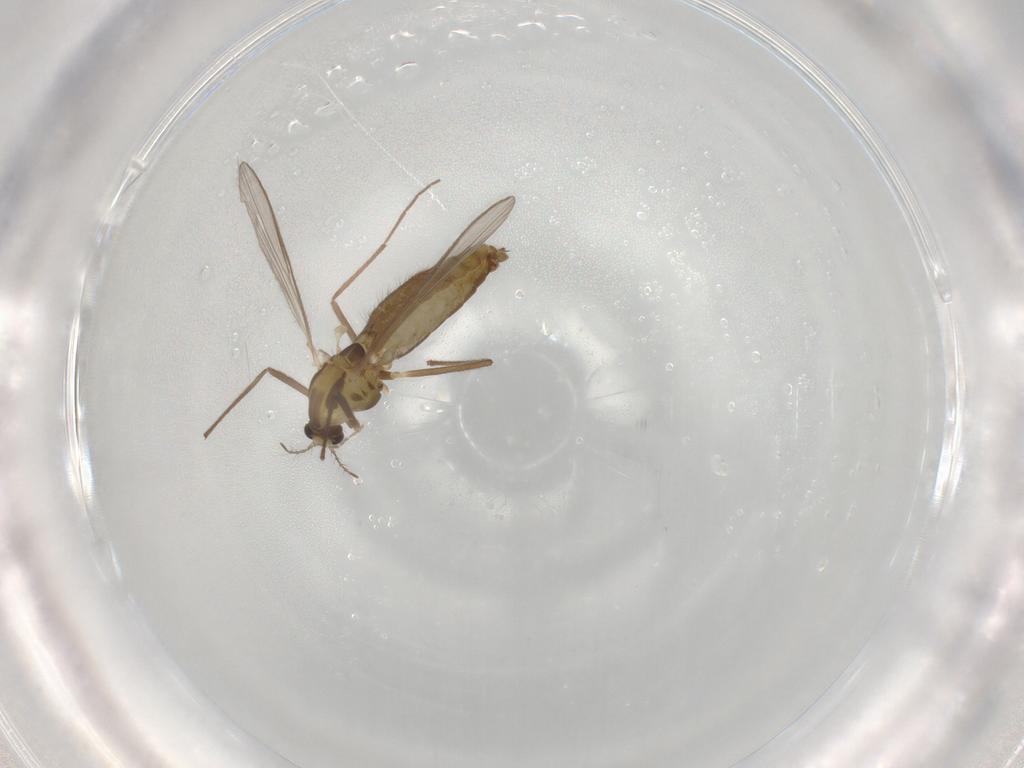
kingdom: Animalia
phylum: Arthropoda
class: Insecta
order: Diptera
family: Chironomidae
